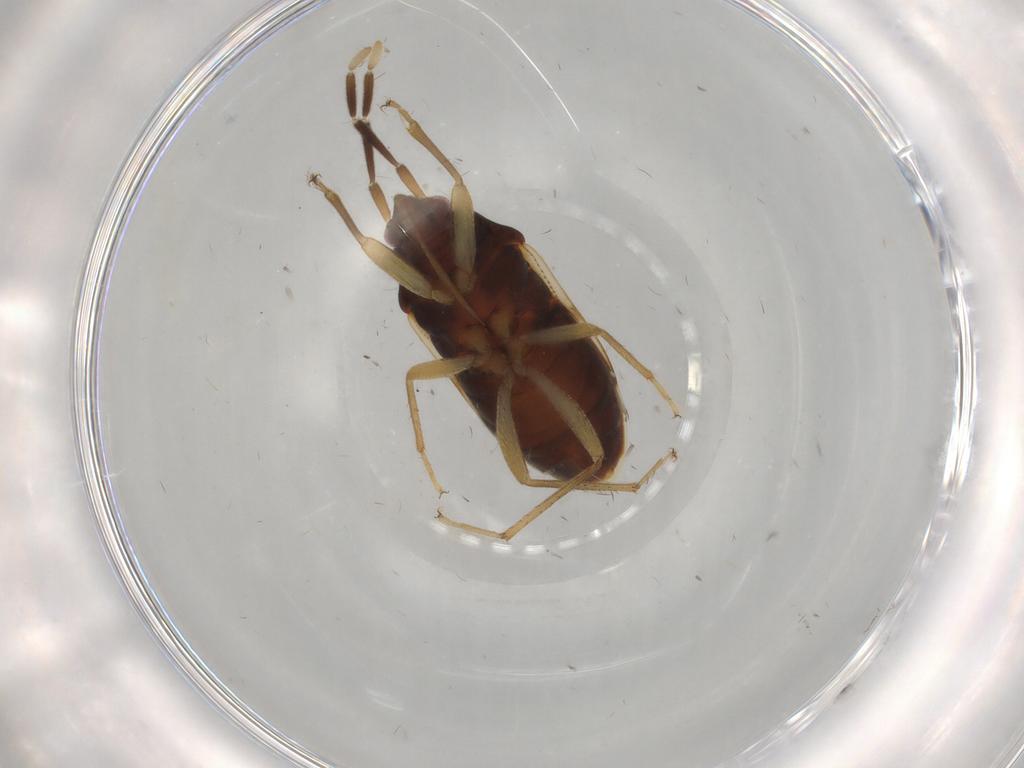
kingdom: Animalia
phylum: Arthropoda
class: Insecta
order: Hemiptera
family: Rhyparochromidae
